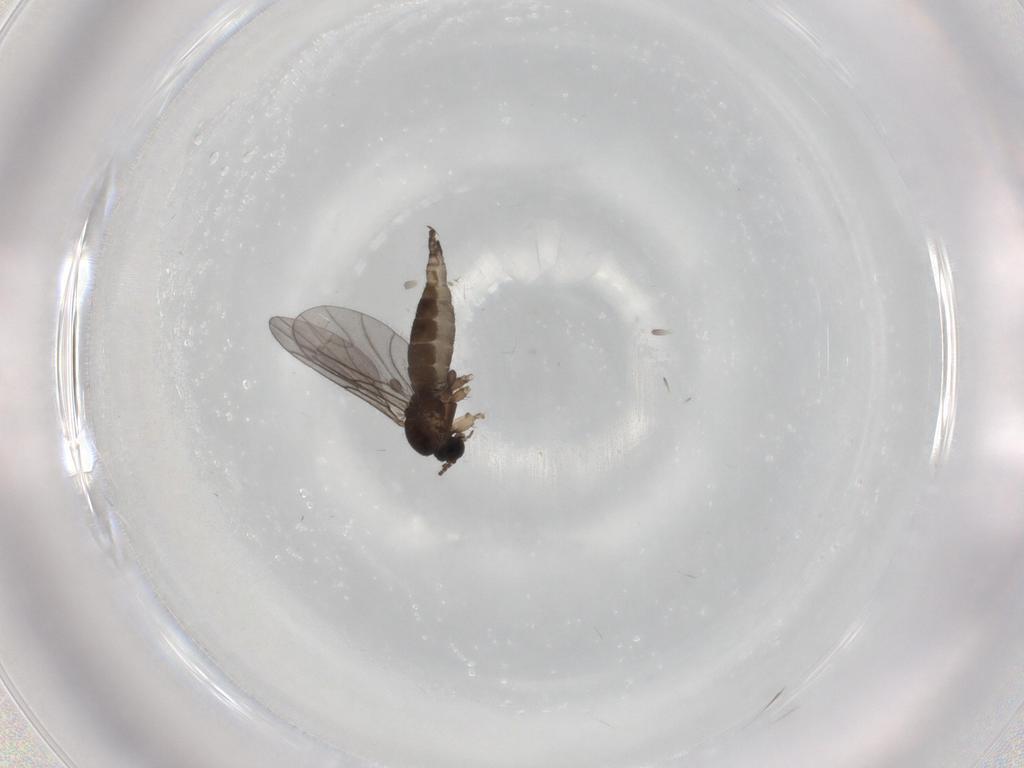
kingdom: Animalia
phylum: Arthropoda
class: Insecta
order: Diptera
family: Sciaridae
